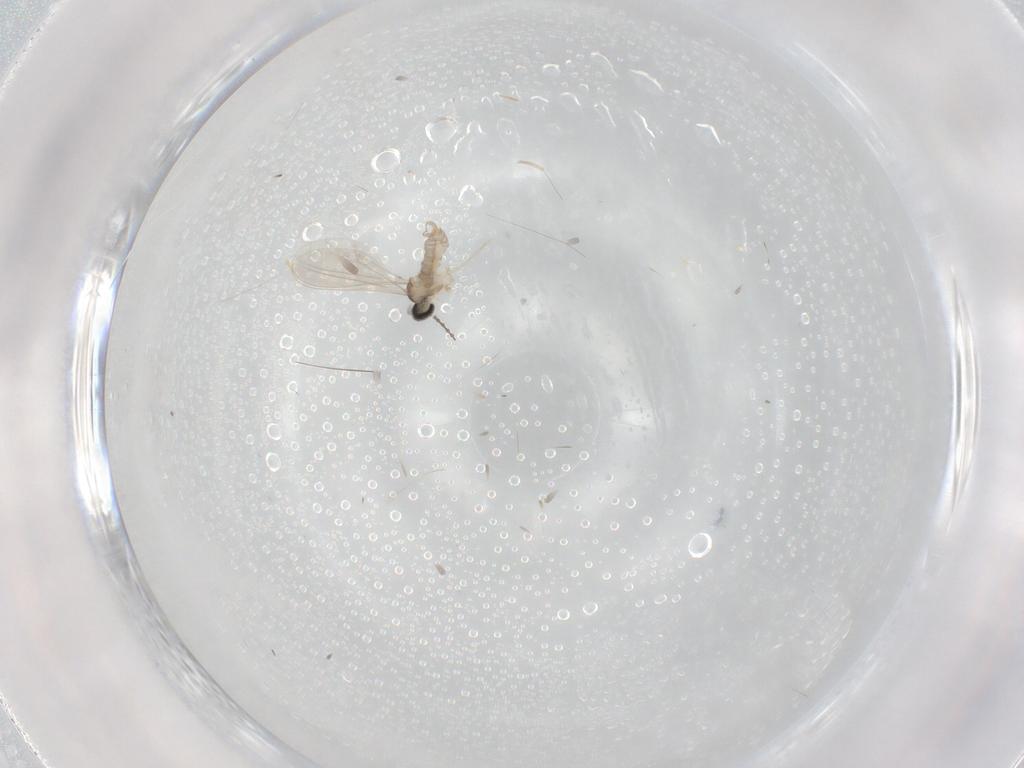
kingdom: Animalia
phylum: Arthropoda
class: Insecta
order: Diptera
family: Cecidomyiidae
